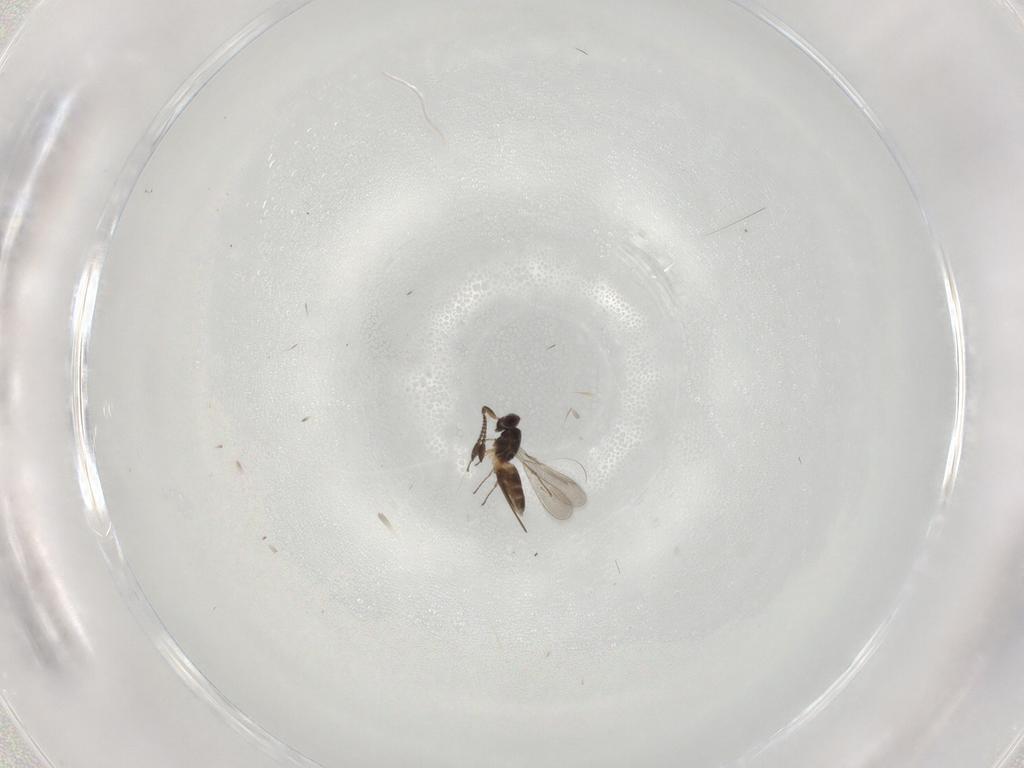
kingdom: Animalia
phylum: Arthropoda
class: Insecta
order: Hymenoptera
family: Mymaridae
